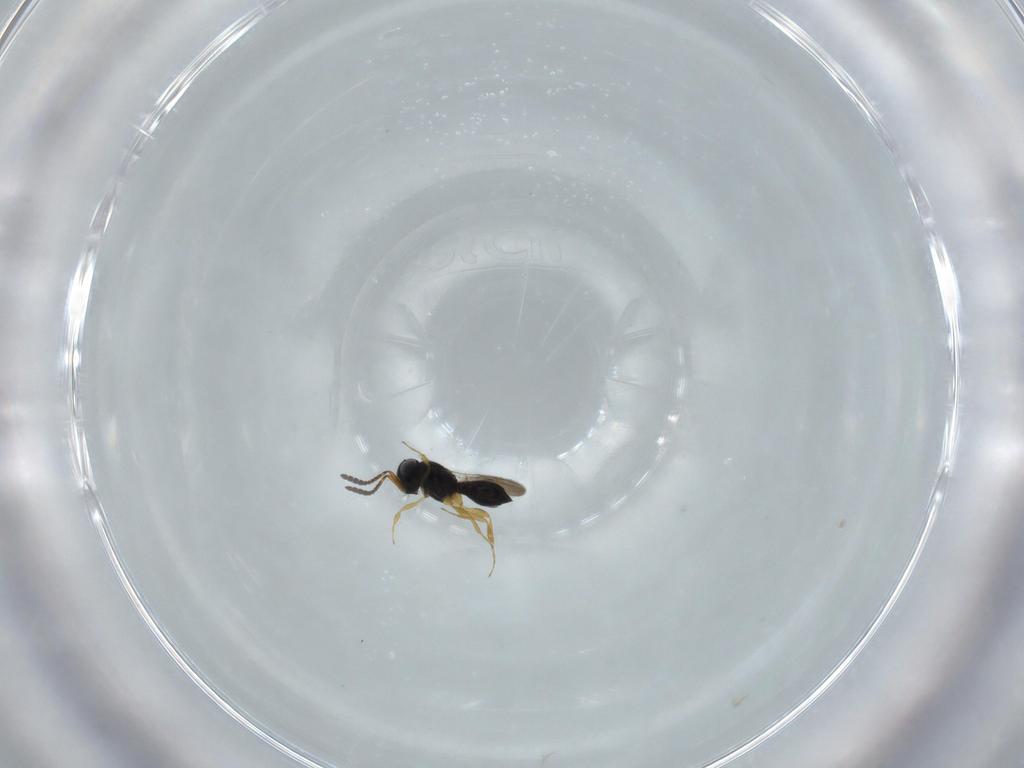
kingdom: Animalia
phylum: Arthropoda
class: Insecta
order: Hymenoptera
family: Scelionidae
